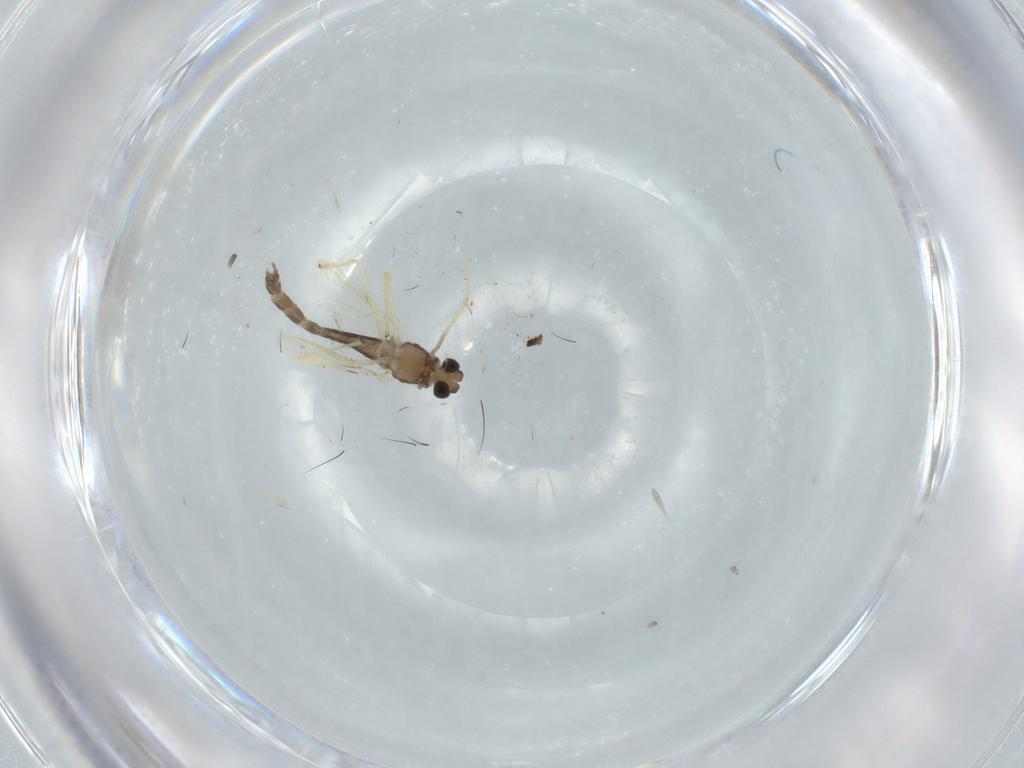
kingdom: Animalia
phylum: Arthropoda
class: Insecta
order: Diptera
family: Chironomidae
